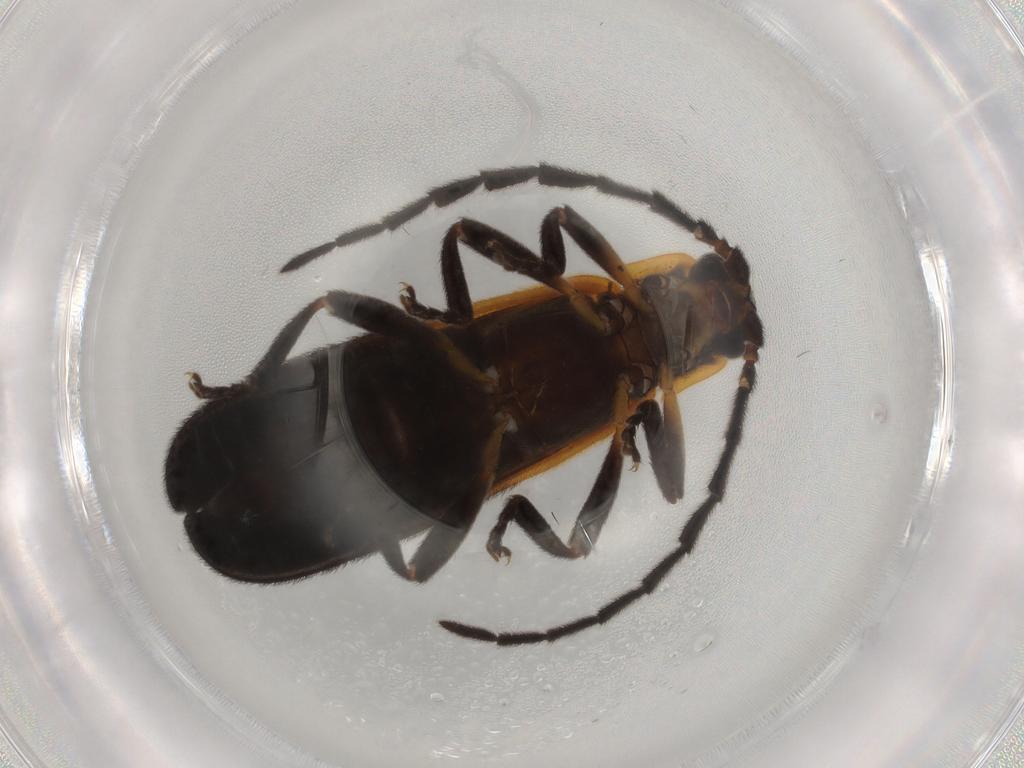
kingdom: Animalia
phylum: Arthropoda
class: Insecta
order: Coleoptera
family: Lycidae
